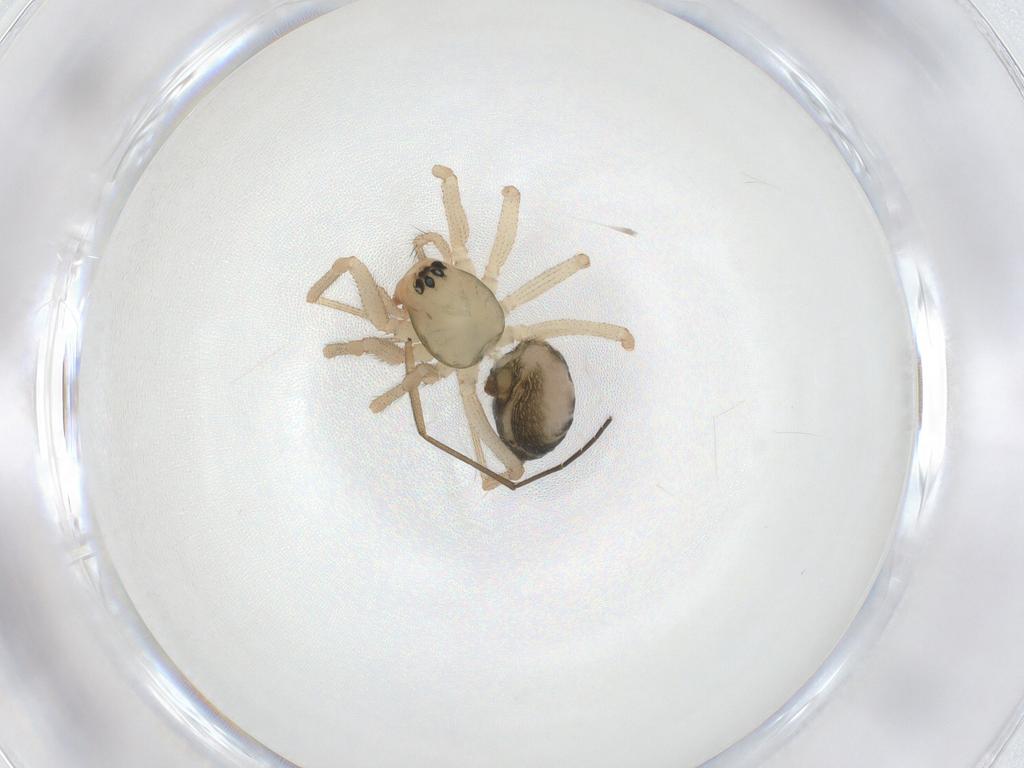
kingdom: Animalia
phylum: Arthropoda
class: Arachnida
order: Araneae
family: Linyphiidae
